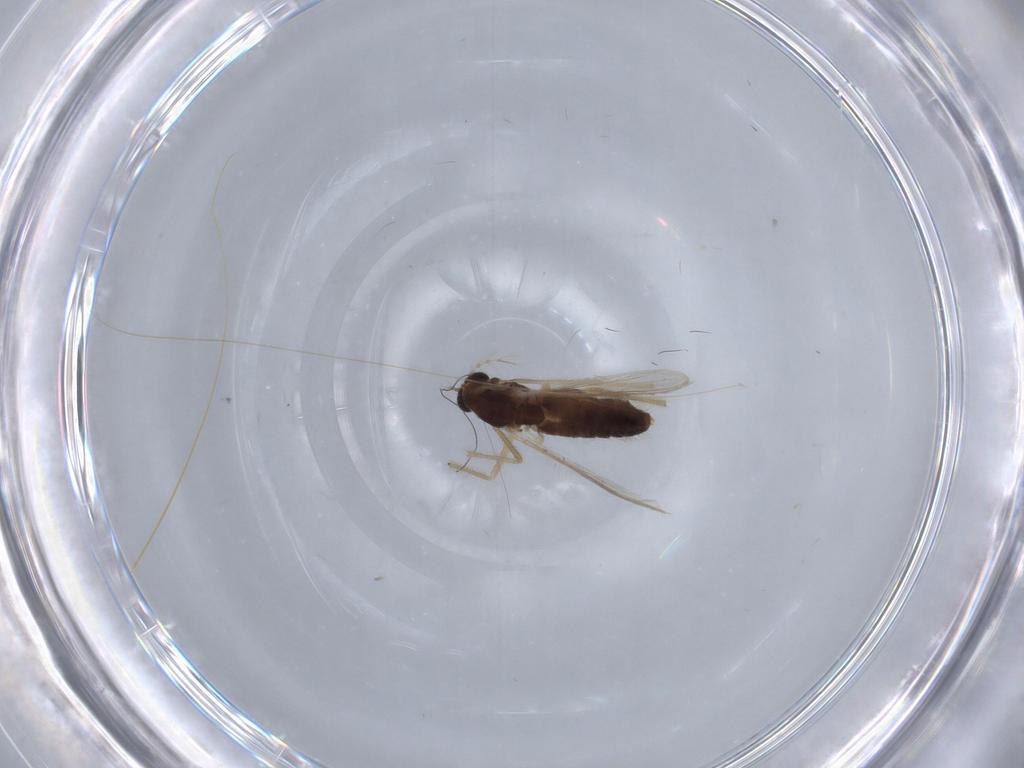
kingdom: Animalia
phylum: Arthropoda
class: Insecta
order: Diptera
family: Chironomidae
